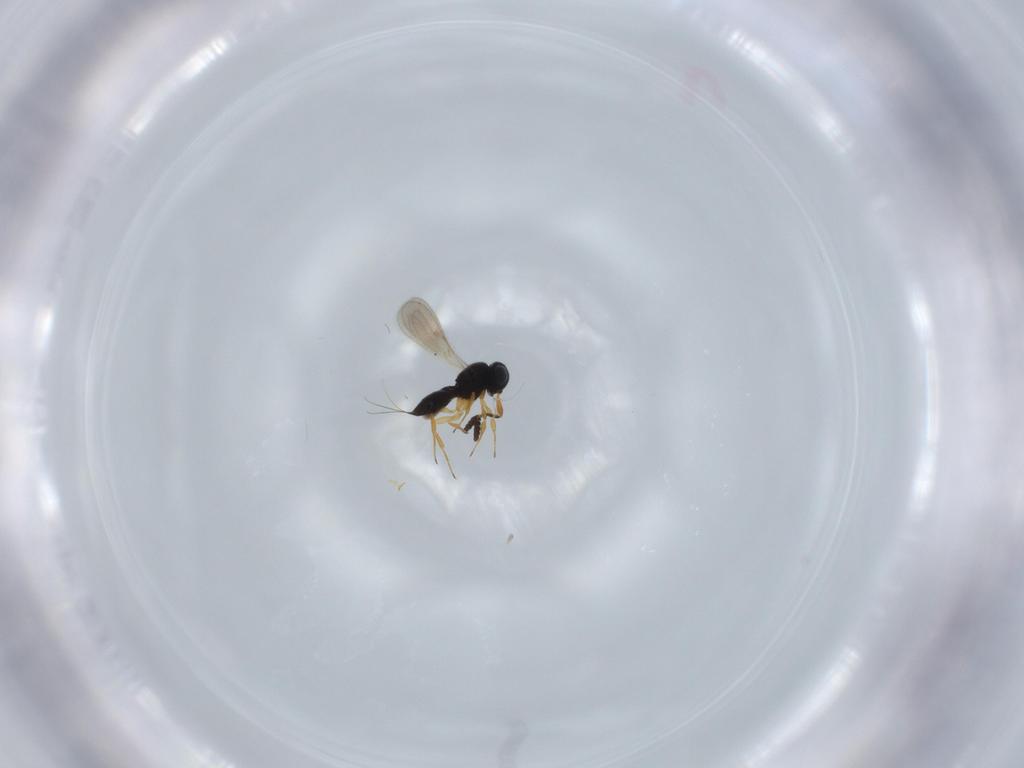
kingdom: Animalia
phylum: Arthropoda
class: Insecta
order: Hymenoptera
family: Scelionidae
